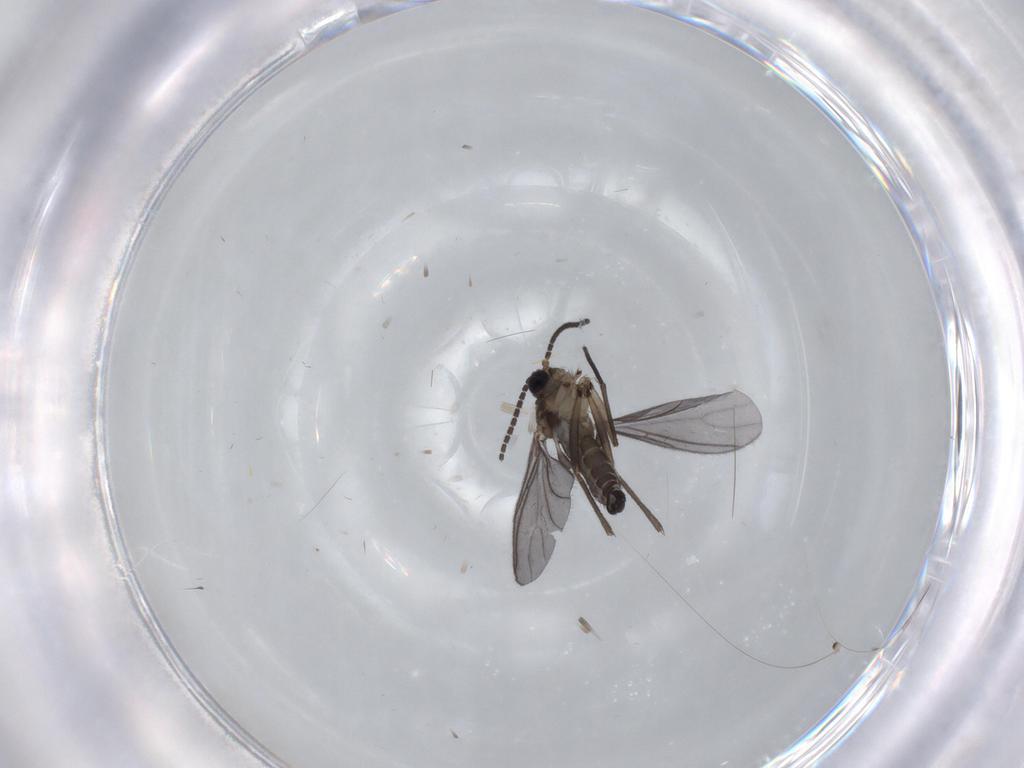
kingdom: Animalia
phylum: Arthropoda
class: Insecta
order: Diptera
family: Sciaridae
